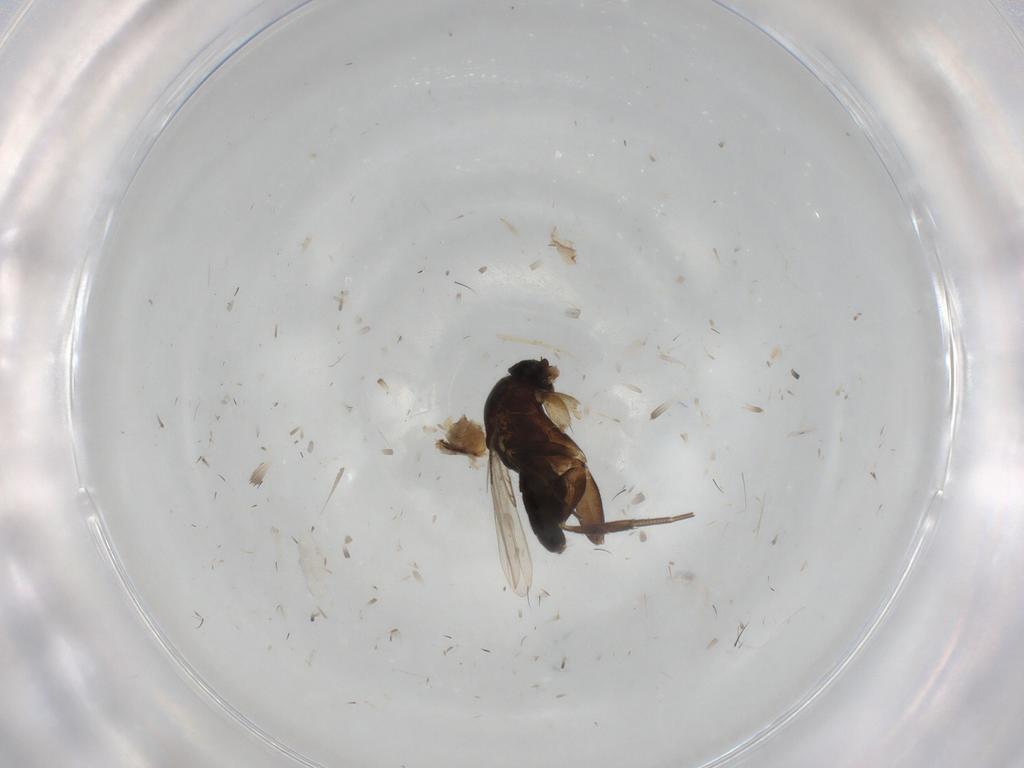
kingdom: Animalia
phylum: Arthropoda
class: Insecta
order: Diptera
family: Glossinidae
